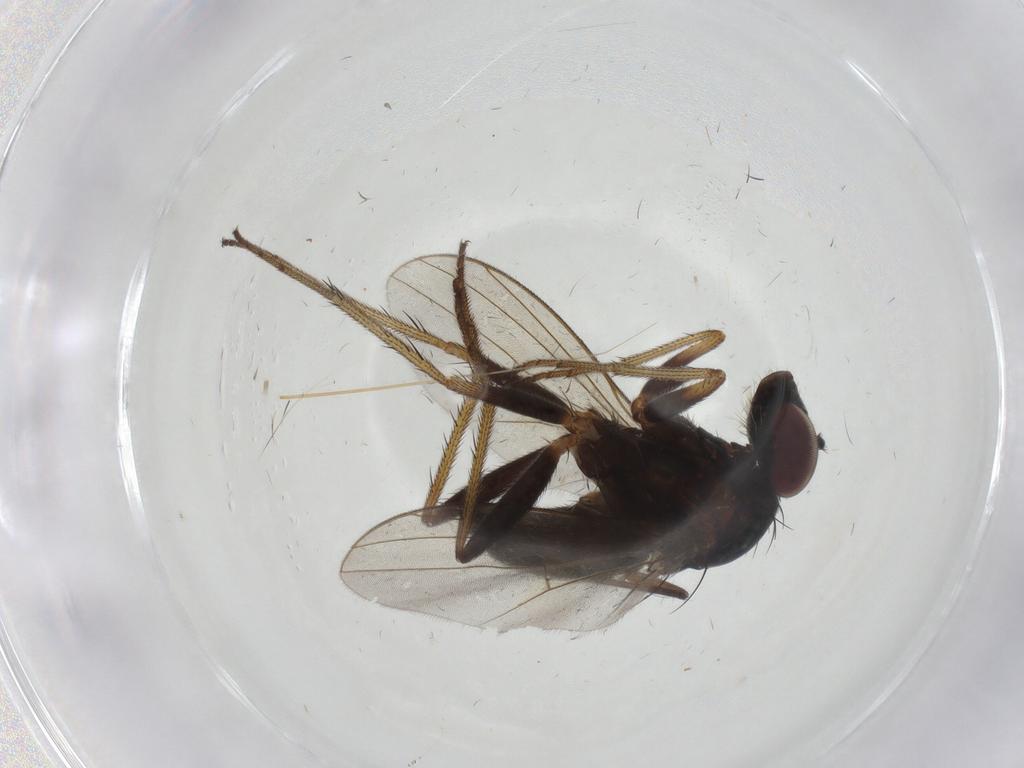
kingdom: Animalia
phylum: Arthropoda
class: Insecta
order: Diptera
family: Dolichopodidae
